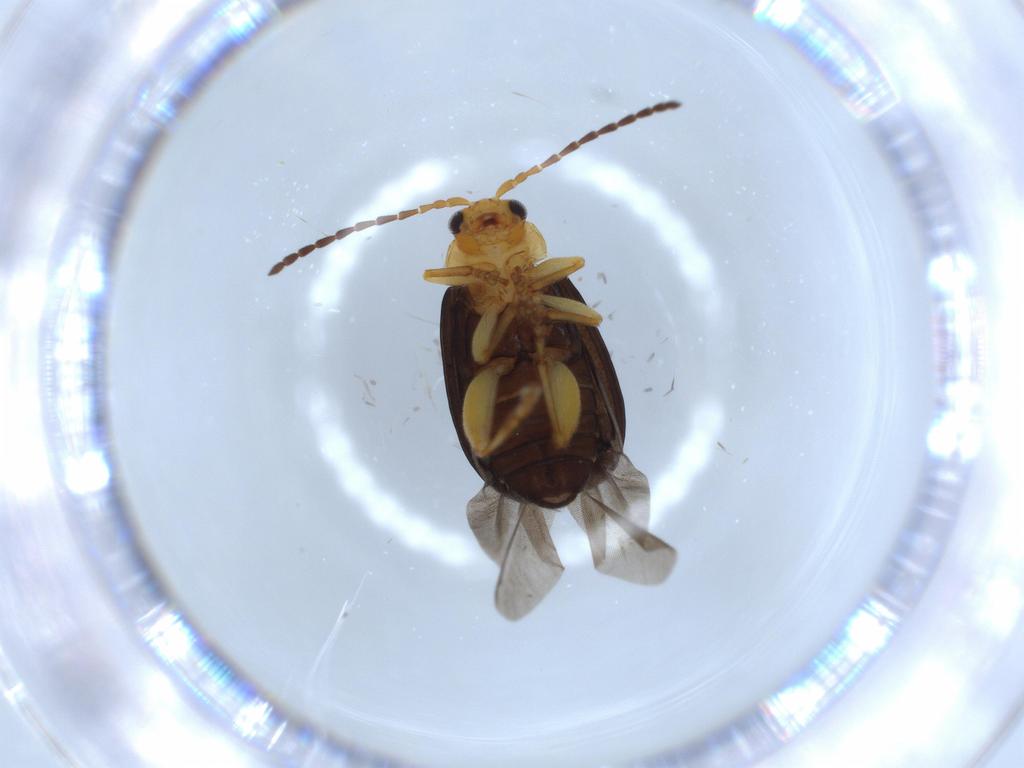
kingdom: Animalia
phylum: Arthropoda
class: Insecta
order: Coleoptera
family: Chrysomelidae
